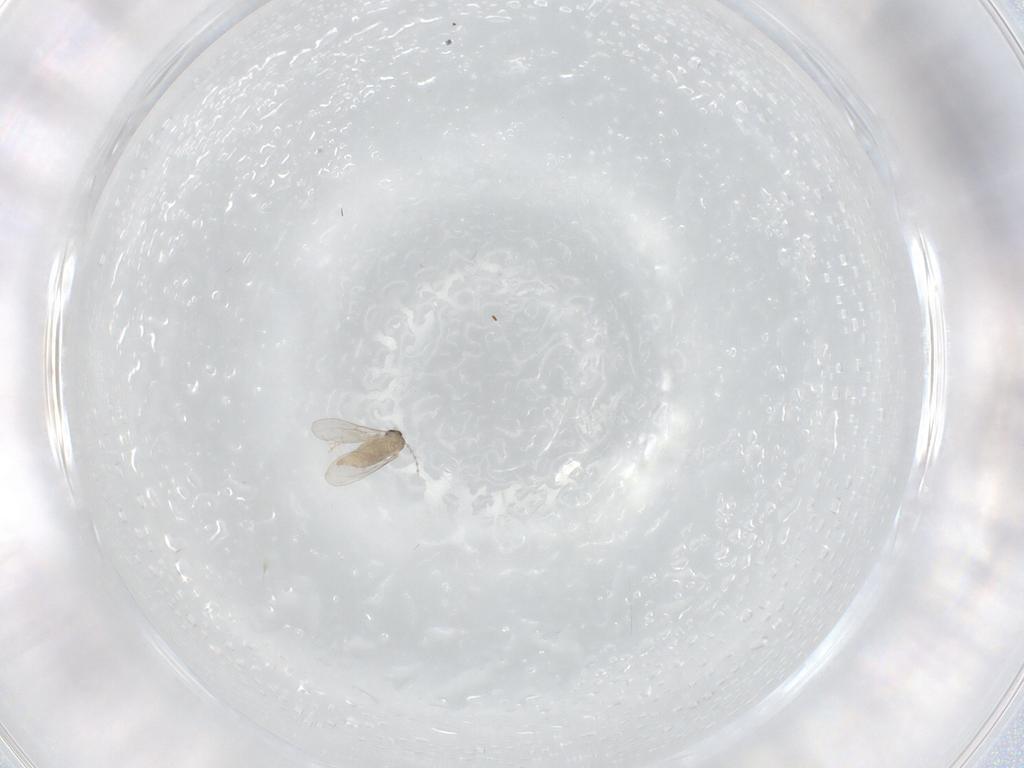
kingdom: Animalia
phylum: Arthropoda
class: Insecta
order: Diptera
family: Cecidomyiidae
